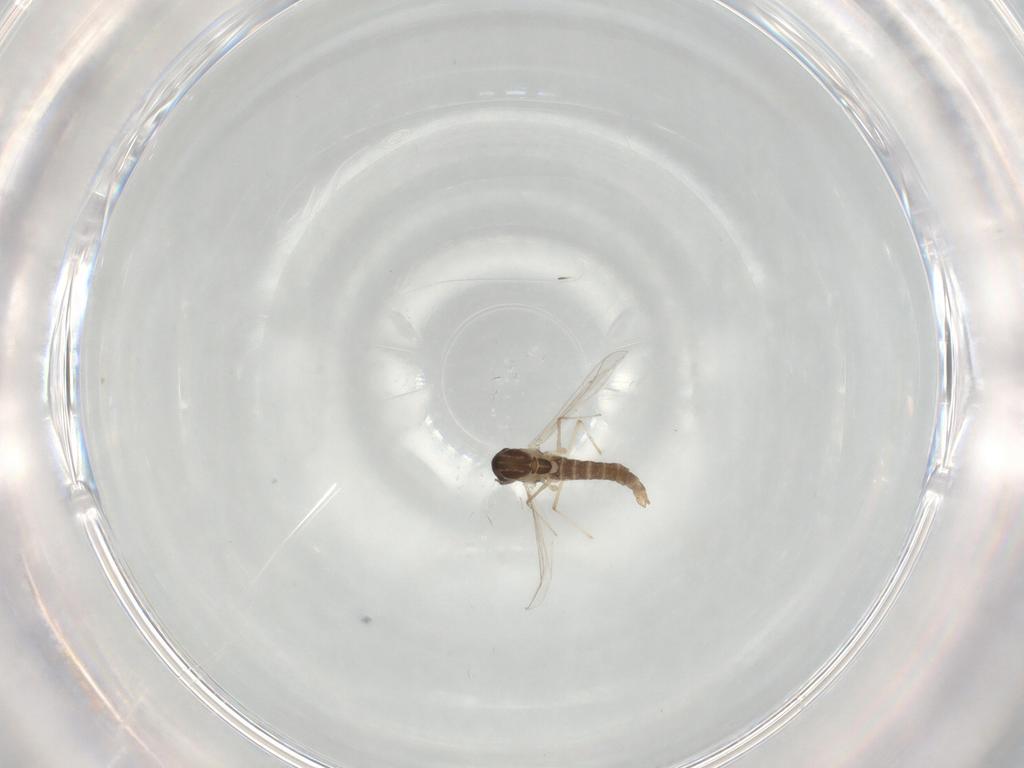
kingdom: Animalia
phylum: Arthropoda
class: Insecta
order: Diptera
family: Chironomidae
